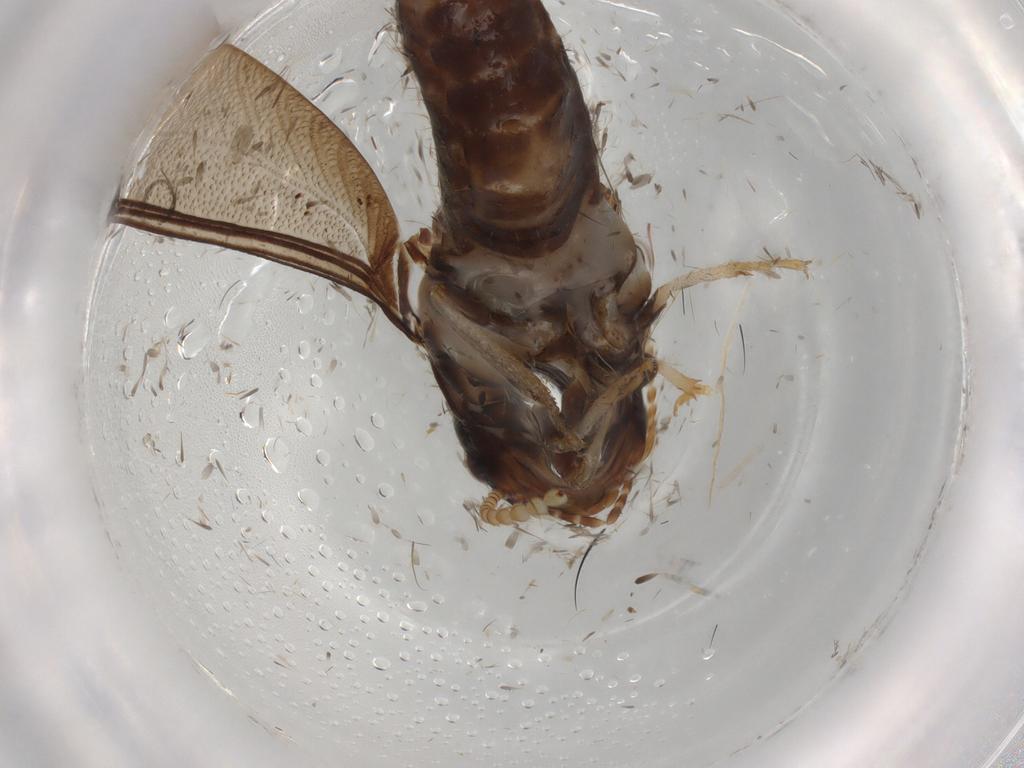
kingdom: Animalia
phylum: Arthropoda
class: Insecta
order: Blattodea
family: Kalotermitidae
